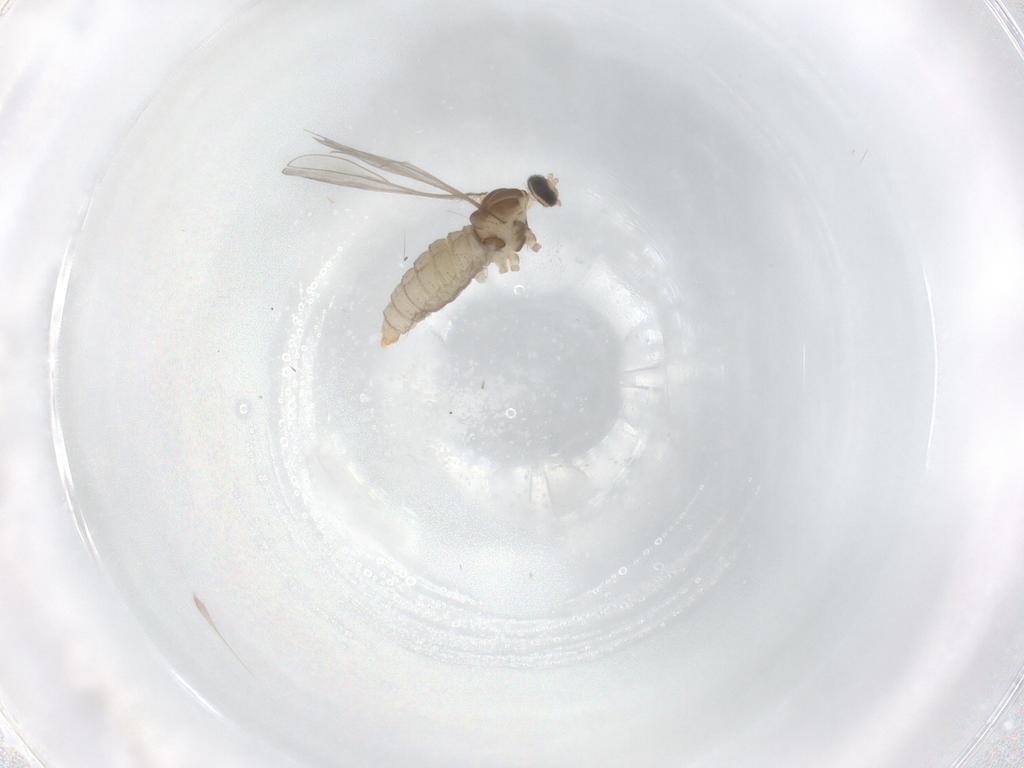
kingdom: Animalia
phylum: Arthropoda
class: Insecta
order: Diptera
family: Cecidomyiidae
